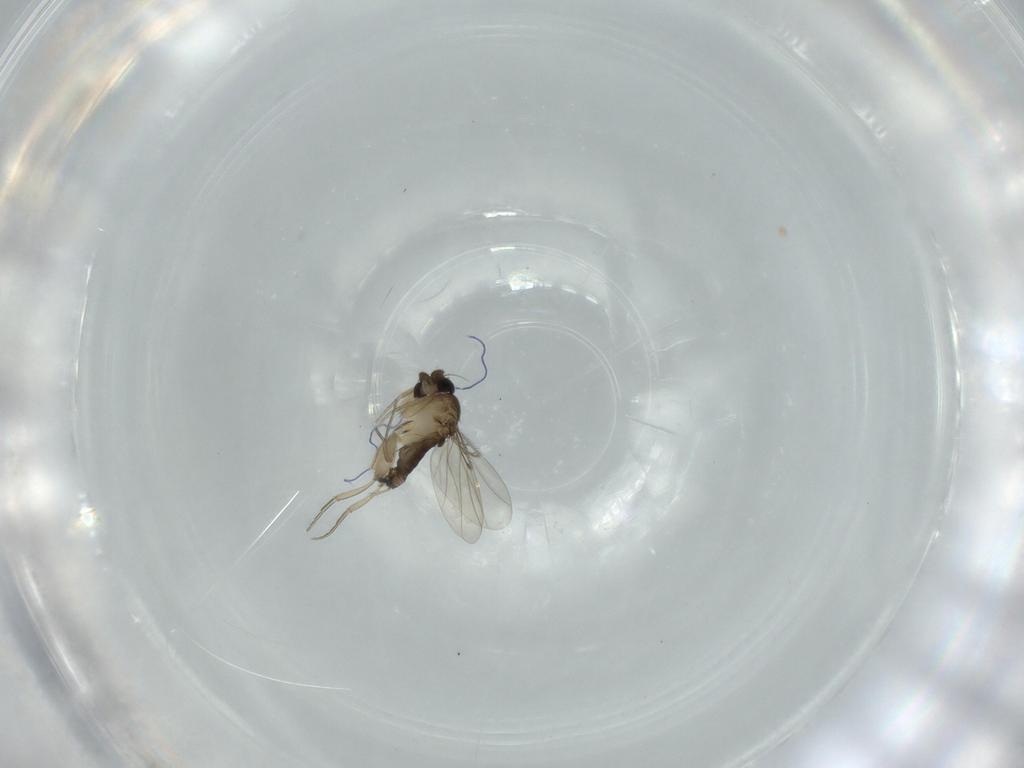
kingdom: Animalia
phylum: Arthropoda
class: Insecta
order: Diptera
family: Phoridae
